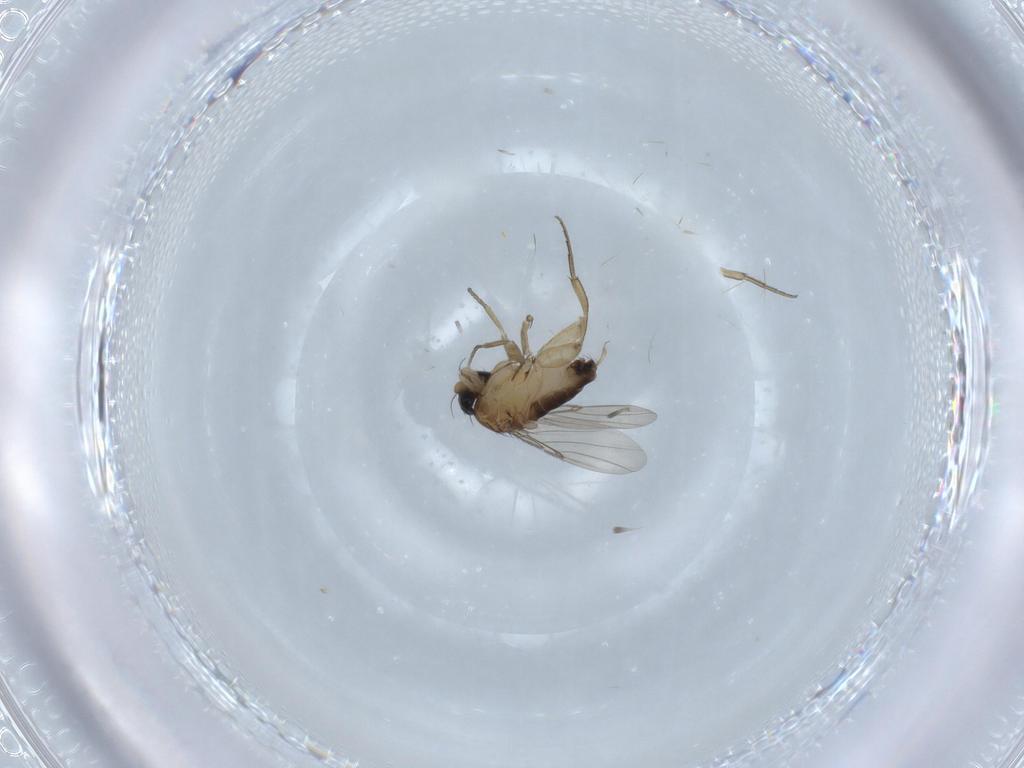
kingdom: Animalia
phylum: Arthropoda
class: Insecta
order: Diptera
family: Phoridae
